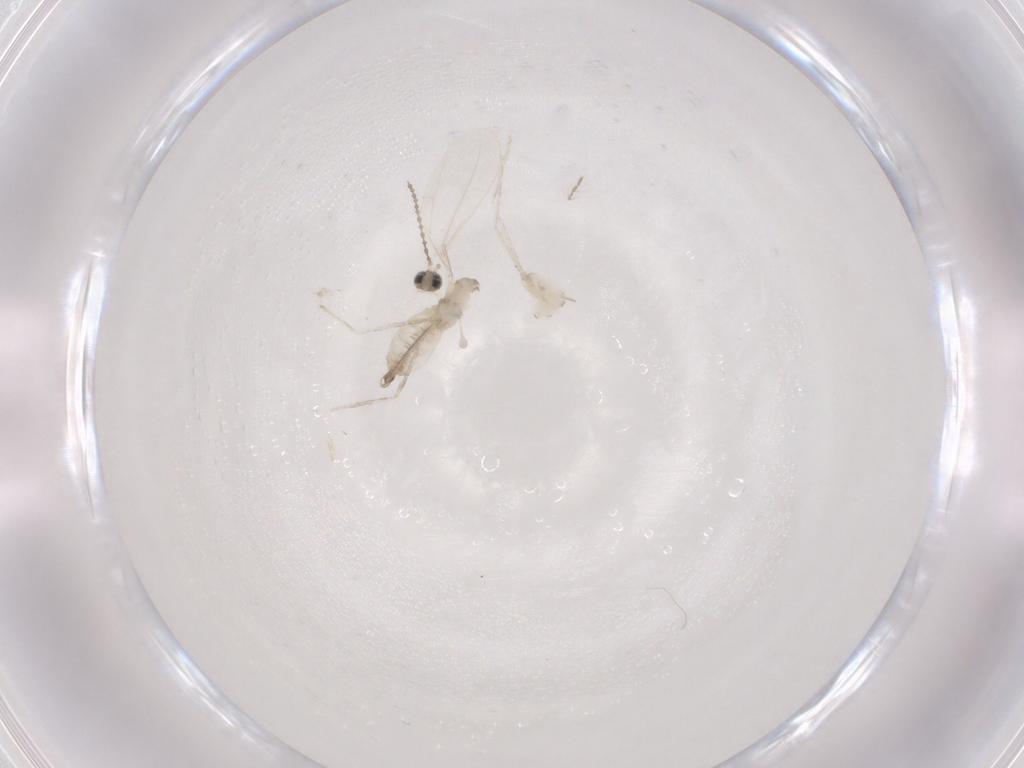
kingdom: Animalia
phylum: Arthropoda
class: Insecta
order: Diptera
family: Cecidomyiidae
